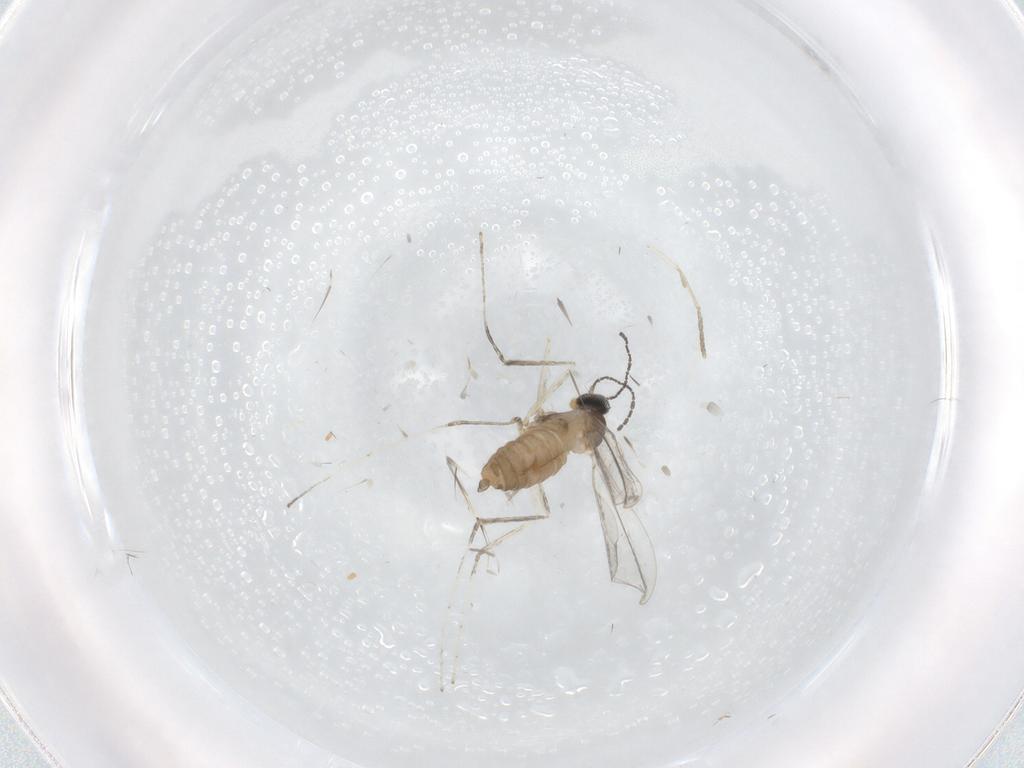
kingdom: Animalia
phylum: Arthropoda
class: Insecta
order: Diptera
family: Cecidomyiidae
